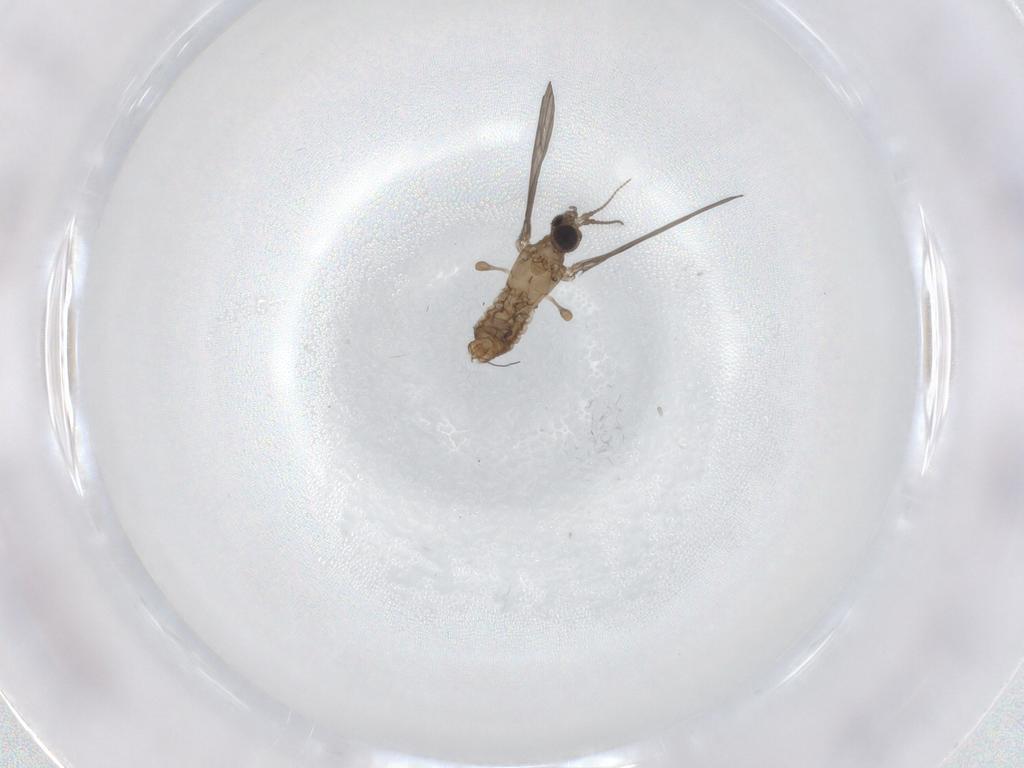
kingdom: Animalia
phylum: Arthropoda
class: Insecta
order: Diptera
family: Limoniidae
